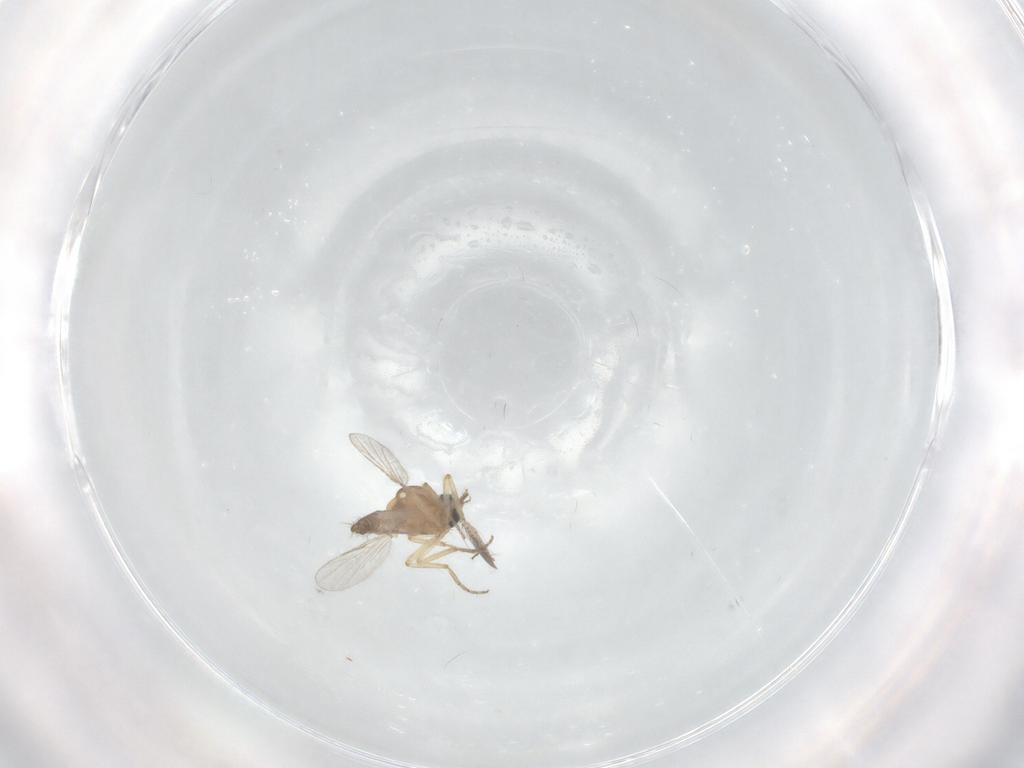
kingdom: Animalia
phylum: Arthropoda
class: Insecta
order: Diptera
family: Ceratopogonidae
